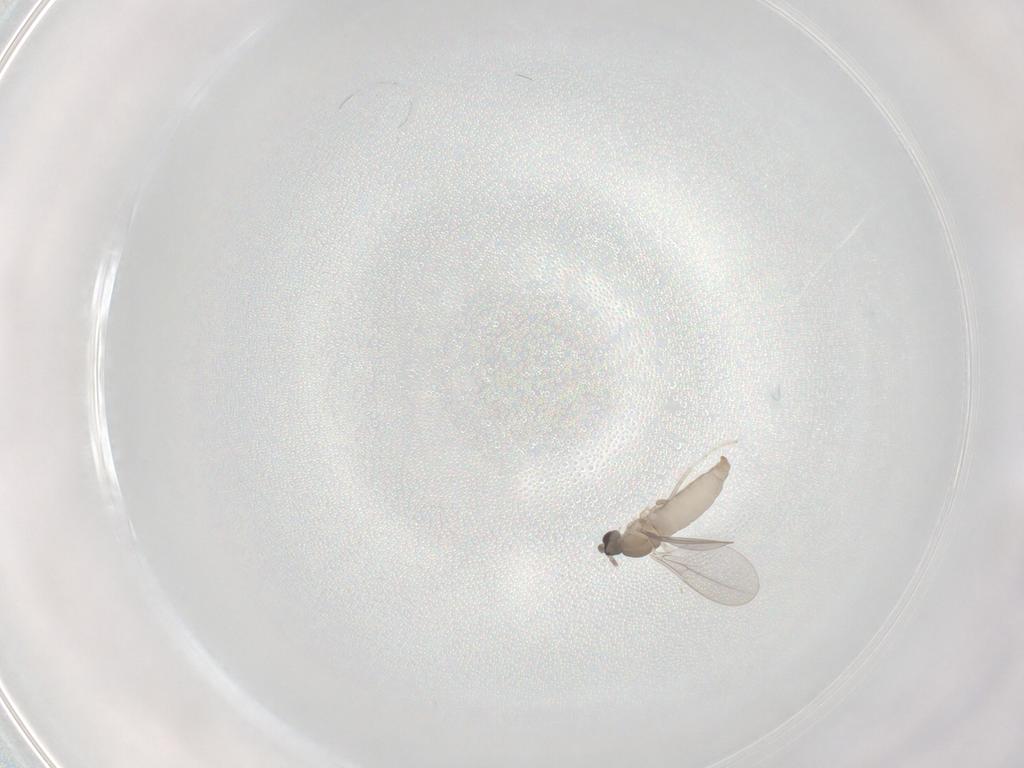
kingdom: Animalia
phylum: Arthropoda
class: Insecta
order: Diptera
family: Cecidomyiidae
